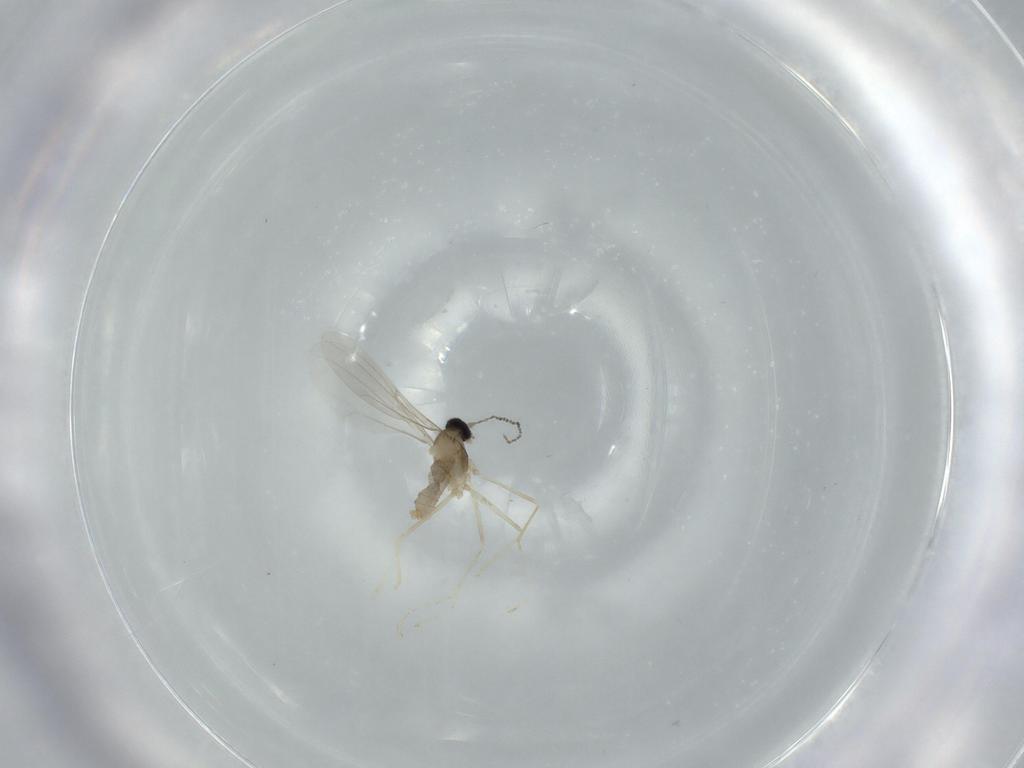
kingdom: Animalia
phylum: Arthropoda
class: Insecta
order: Diptera
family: Cecidomyiidae
